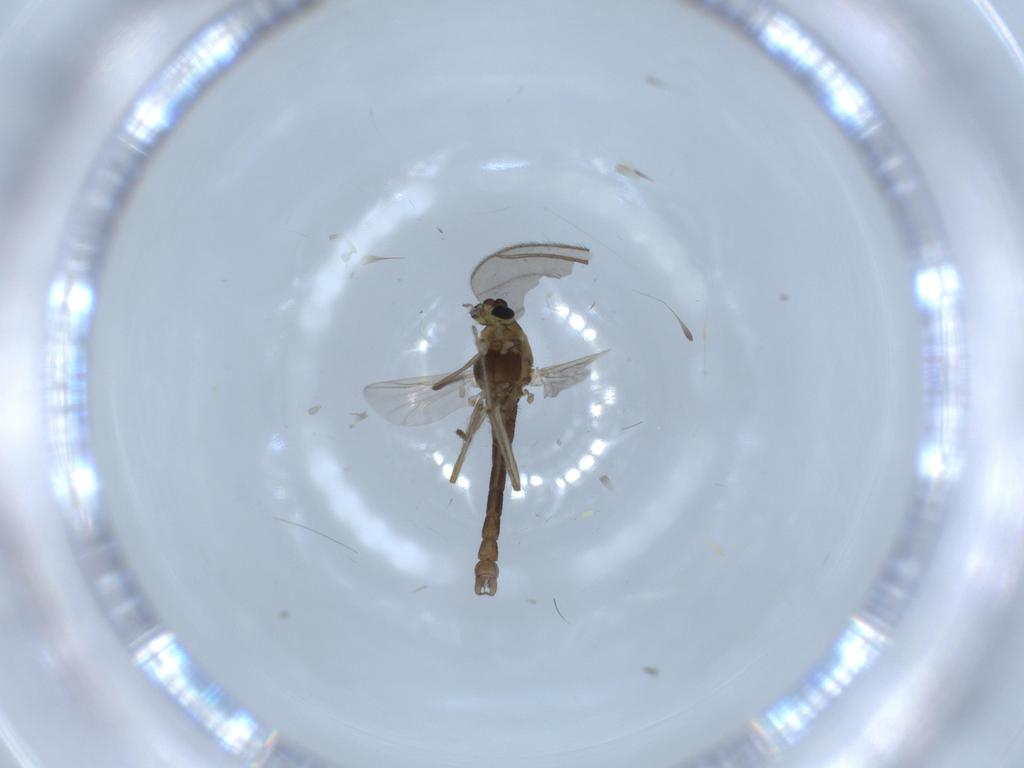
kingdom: Animalia
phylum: Arthropoda
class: Insecta
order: Diptera
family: Chironomidae
